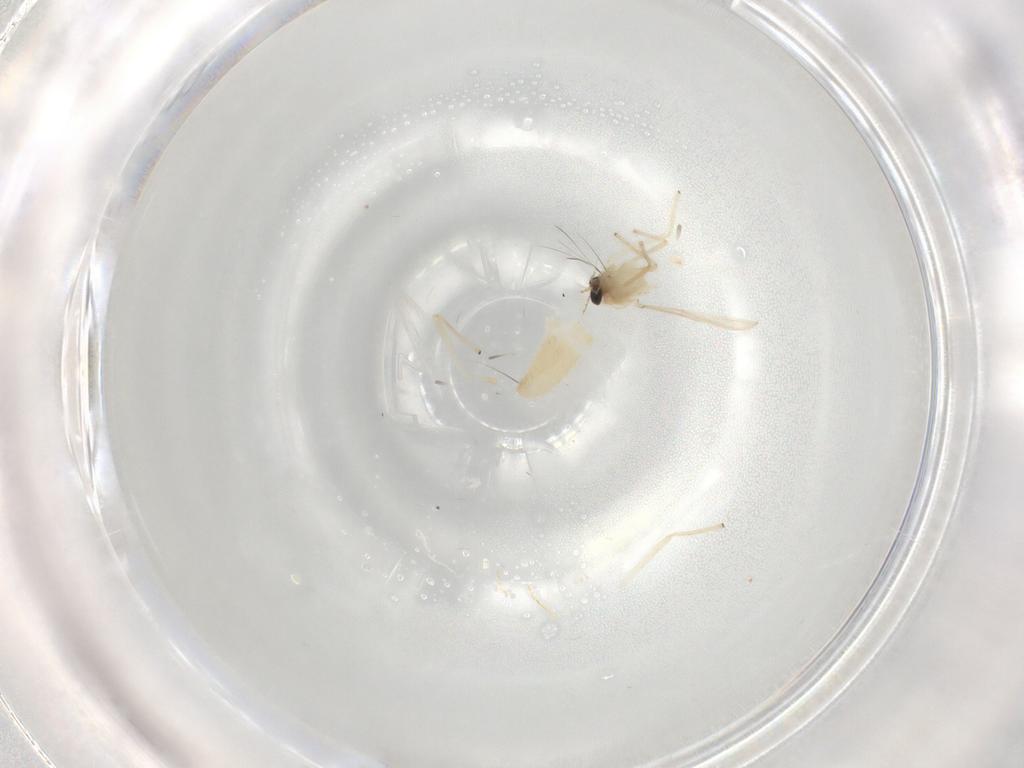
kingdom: Animalia
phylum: Arthropoda
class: Insecta
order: Diptera
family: Chironomidae
